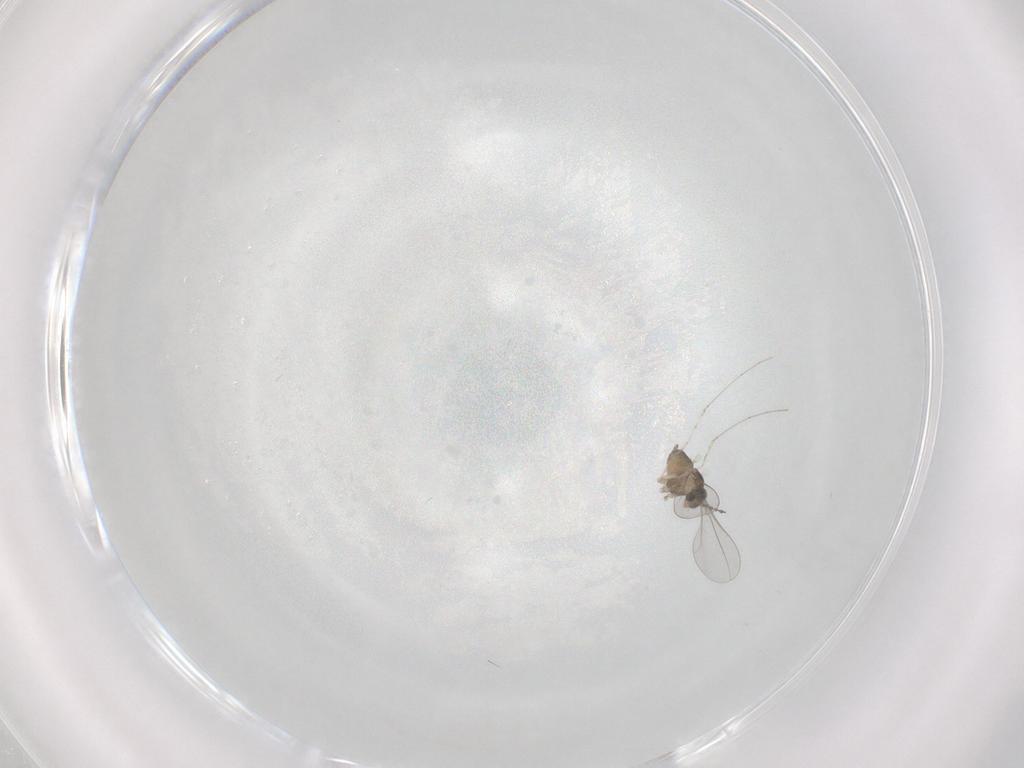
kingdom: Animalia
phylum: Arthropoda
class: Insecta
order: Diptera
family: Cecidomyiidae
